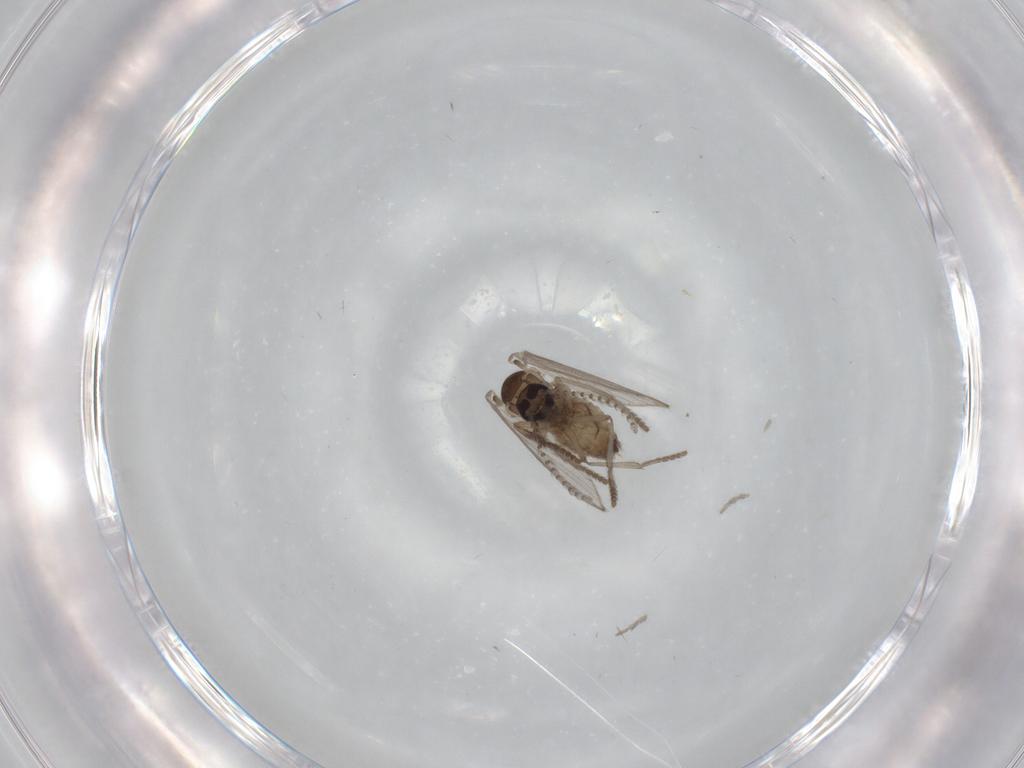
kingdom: Animalia
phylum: Arthropoda
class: Insecta
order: Diptera
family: Psychodidae
